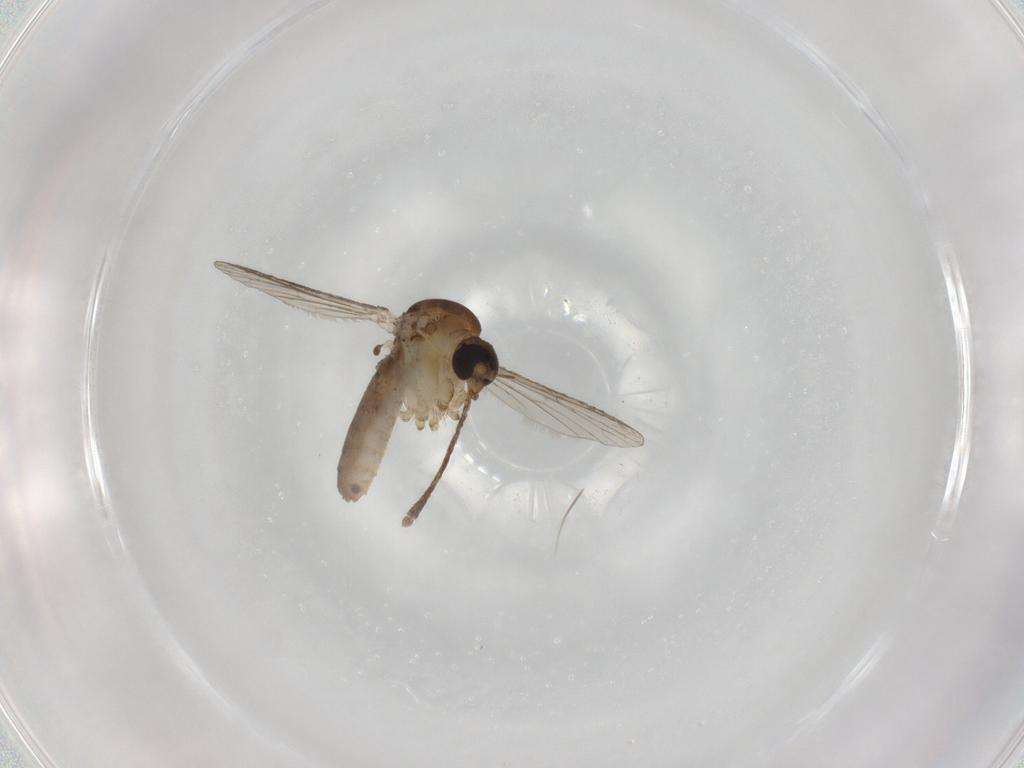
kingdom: Animalia
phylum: Arthropoda
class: Insecta
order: Diptera
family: Culicidae
